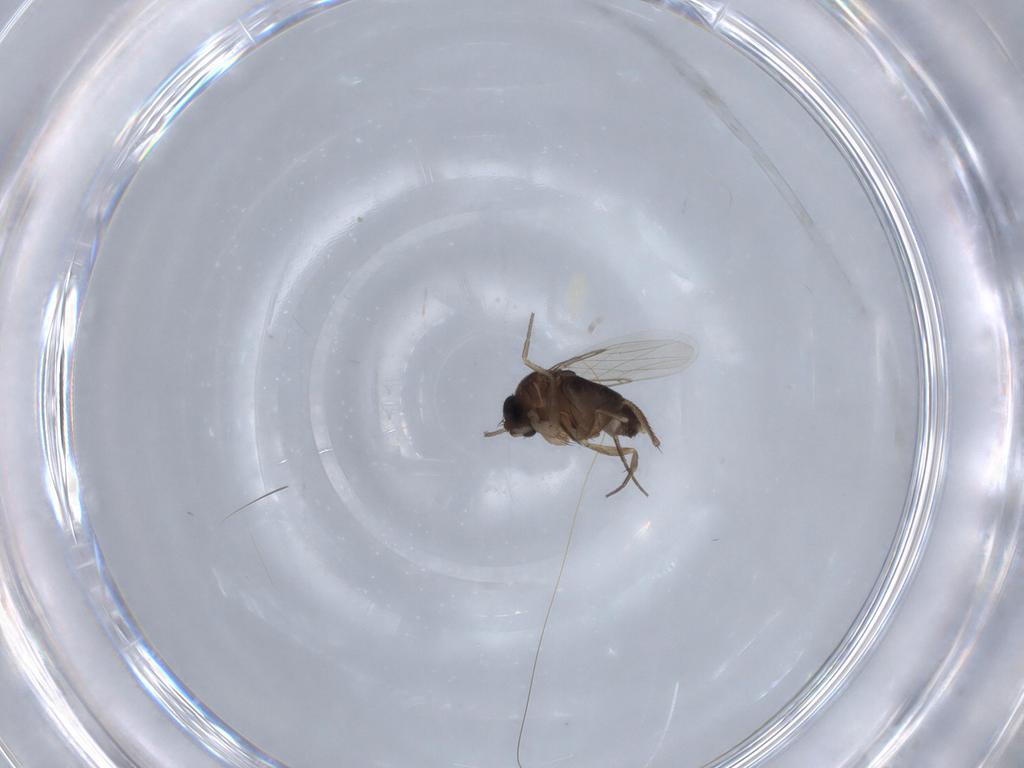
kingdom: Animalia
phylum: Arthropoda
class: Insecta
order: Diptera
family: Phoridae
